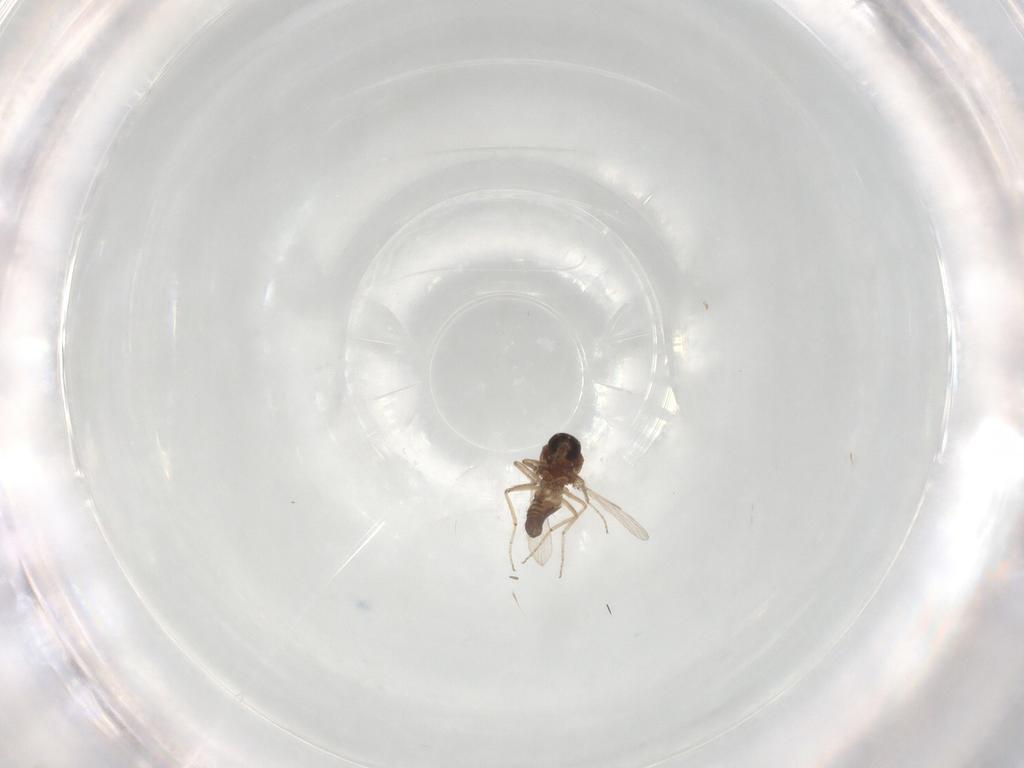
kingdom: Animalia
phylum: Arthropoda
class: Insecta
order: Diptera
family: Ceratopogonidae
